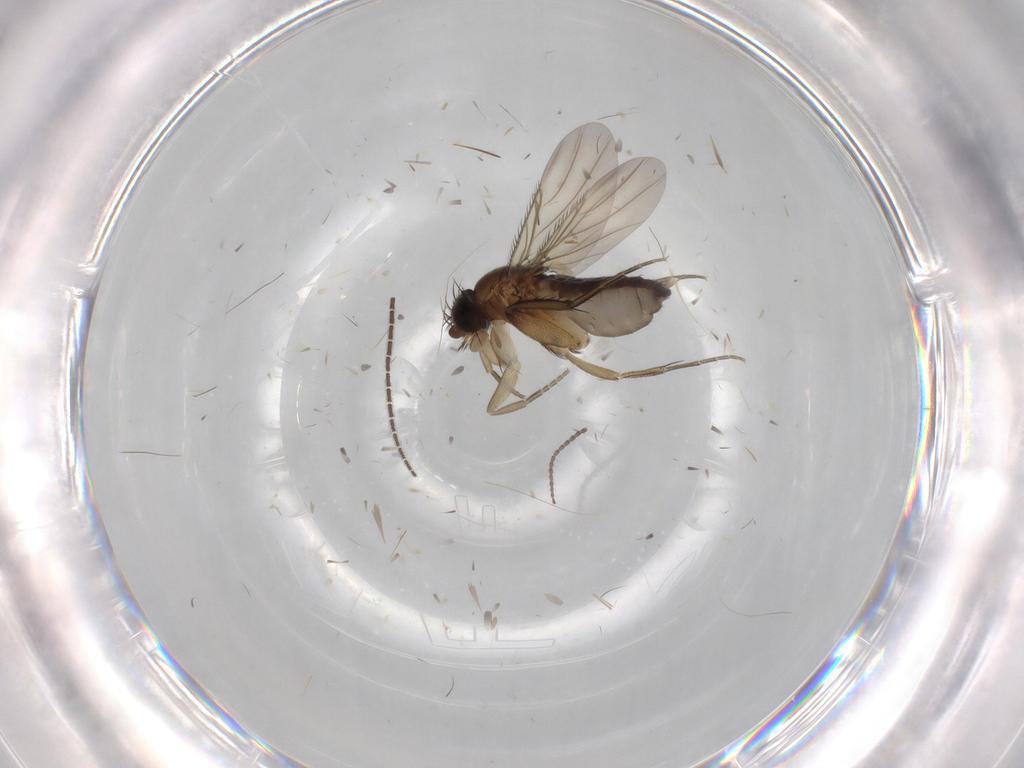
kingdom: Animalia
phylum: Arthropoda
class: Insecta
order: Diptera
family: Phoridae
